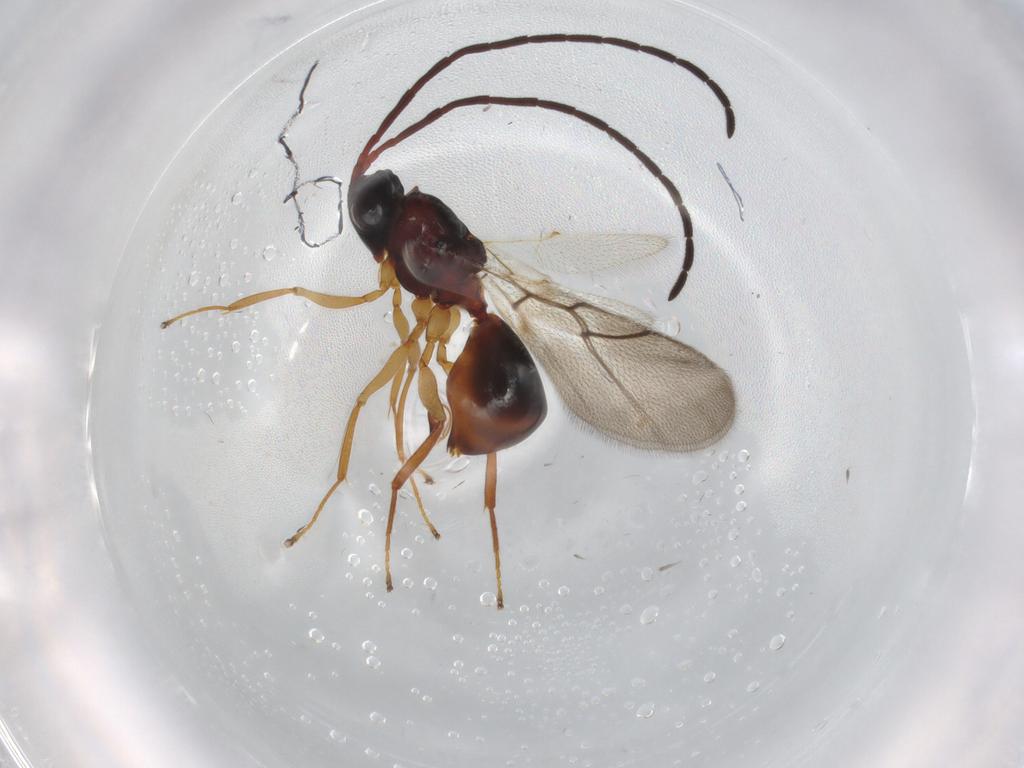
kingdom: Animalia
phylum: Arthropoda
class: Insecta
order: Hymenoptera
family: Figitidae
